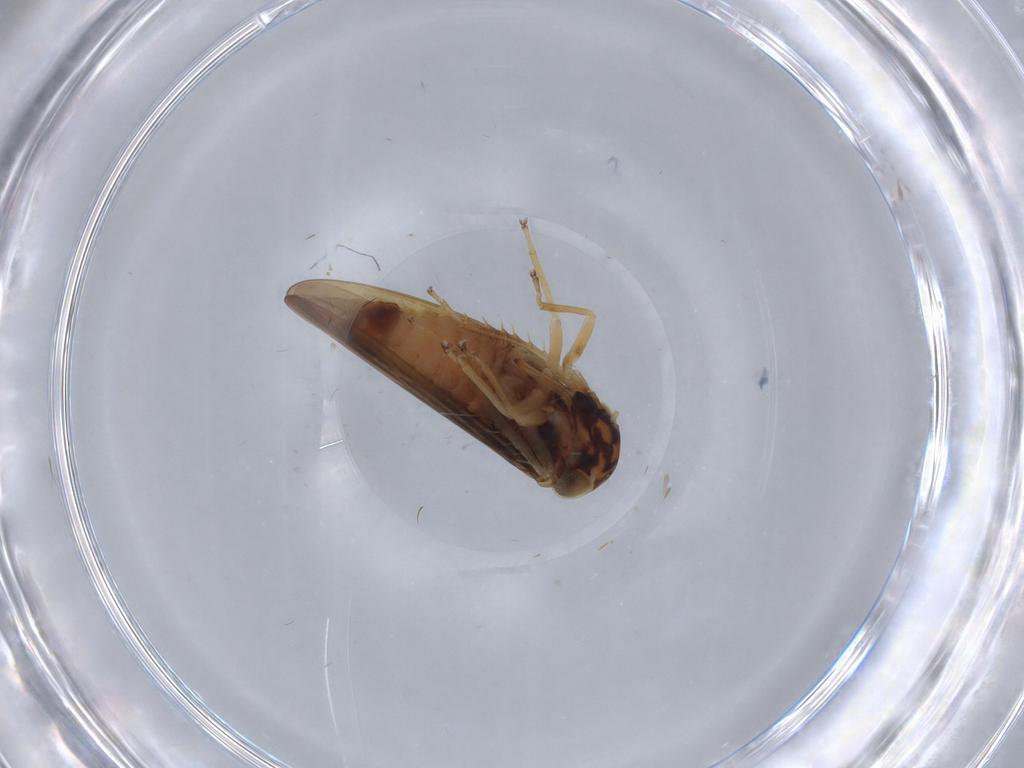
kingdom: Animalia
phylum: Arthropoda
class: Insecta
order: Hemiptera
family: Cicadellidae
